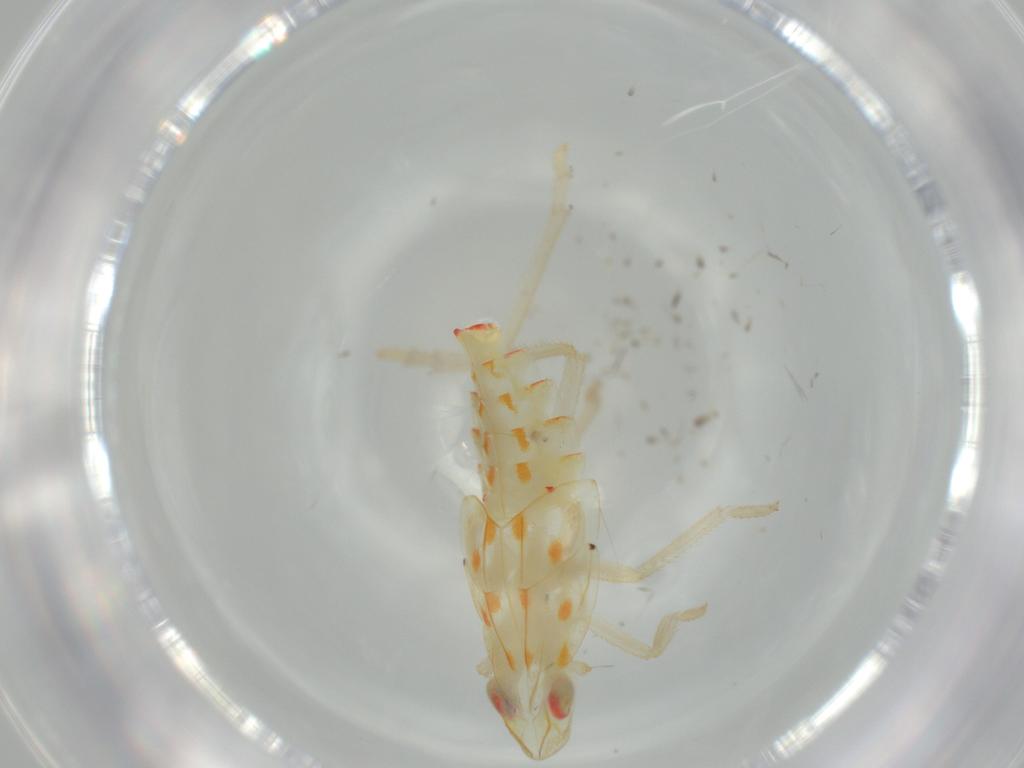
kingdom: Animalia
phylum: Arthropoda
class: Insecta
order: Hemiptera
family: Tropiduchidae
